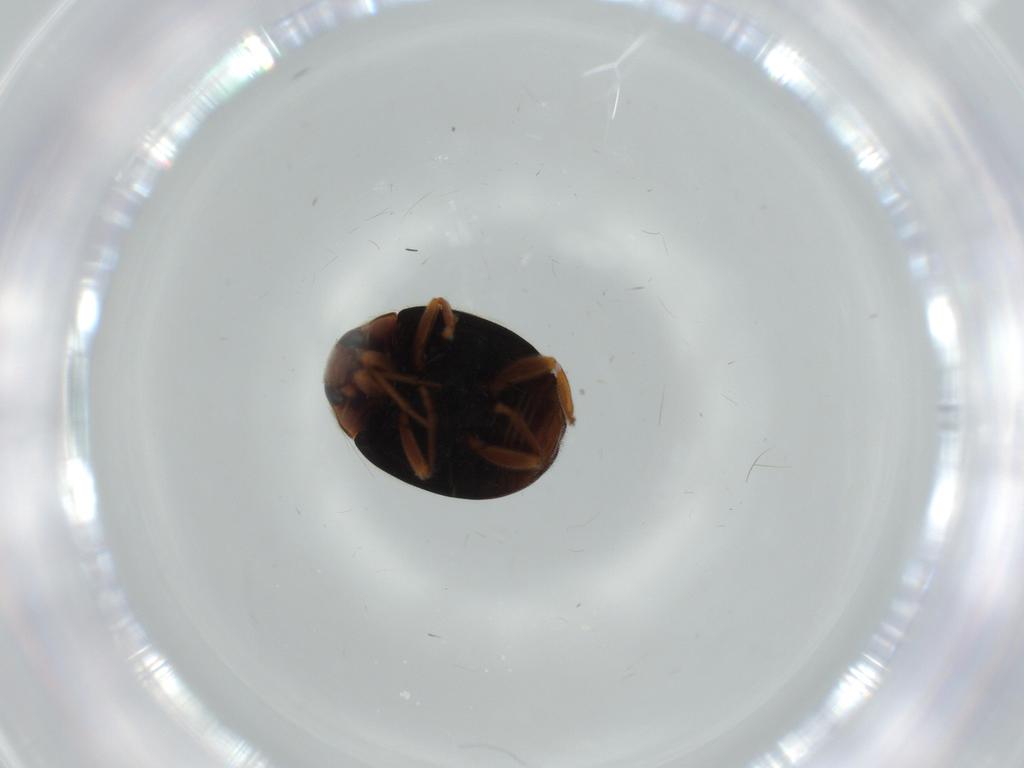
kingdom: Animalia
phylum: Arthropoda
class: Insecta
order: Coleoptera
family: Coccinellidae
